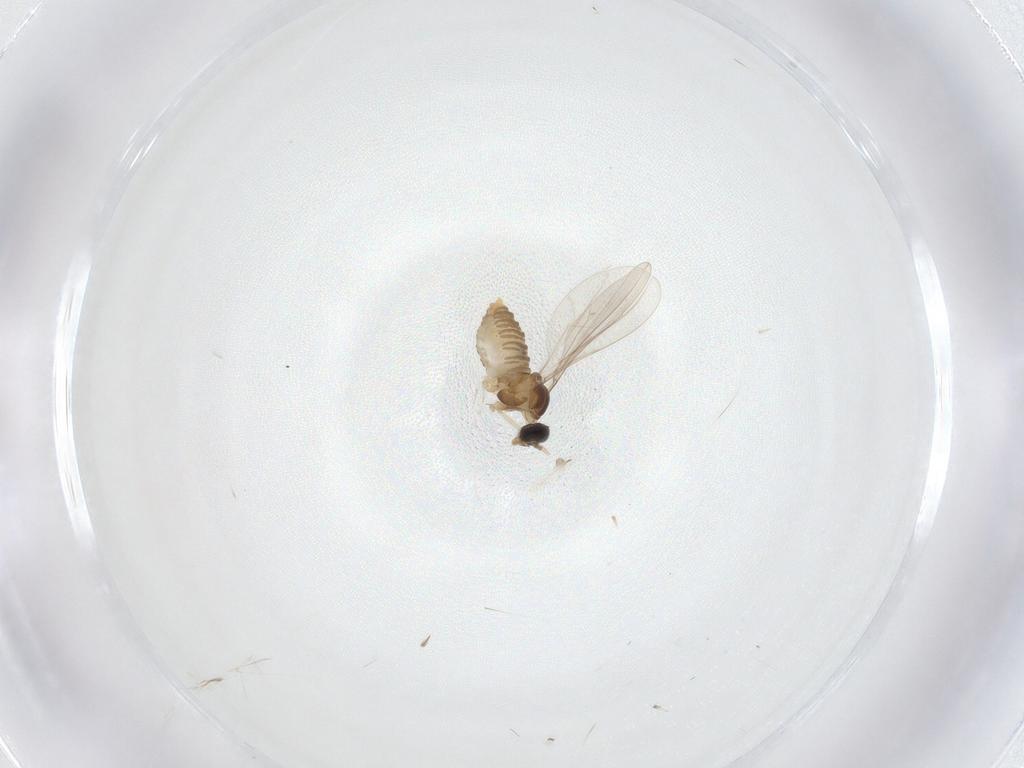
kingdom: Animalia
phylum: Arthropoda
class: Insecta
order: Diptera
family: Cecidomyiidae
